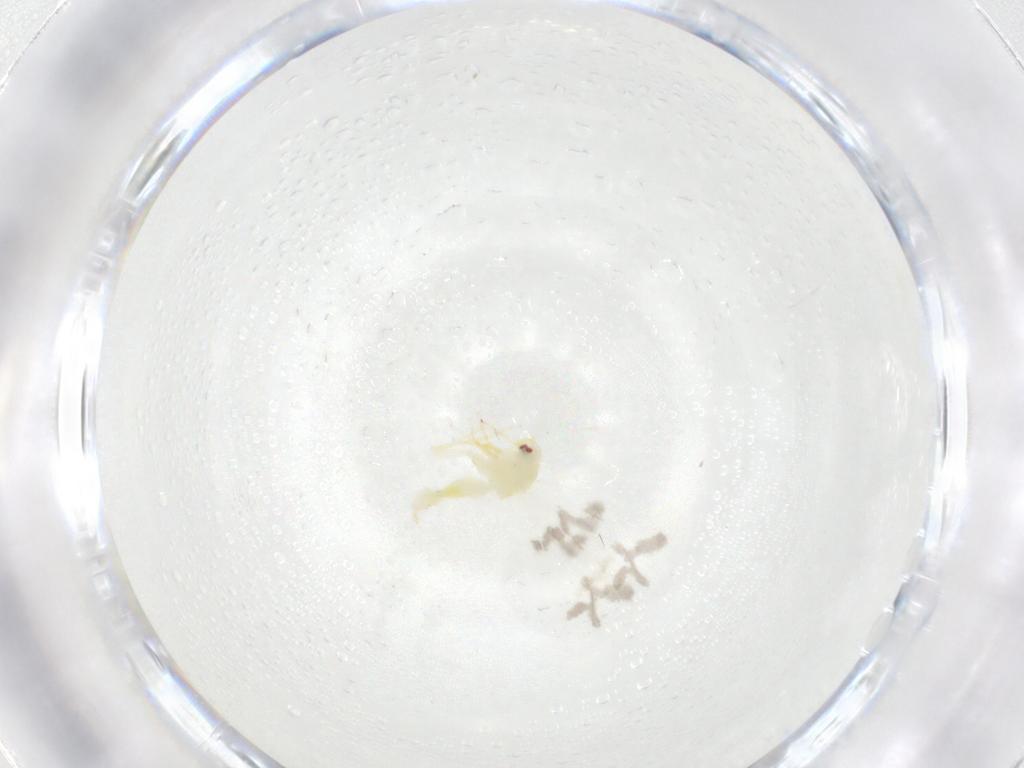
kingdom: Animalia
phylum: Arthropoda
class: Insecta
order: Hemiptera
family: Aleyrodidae
